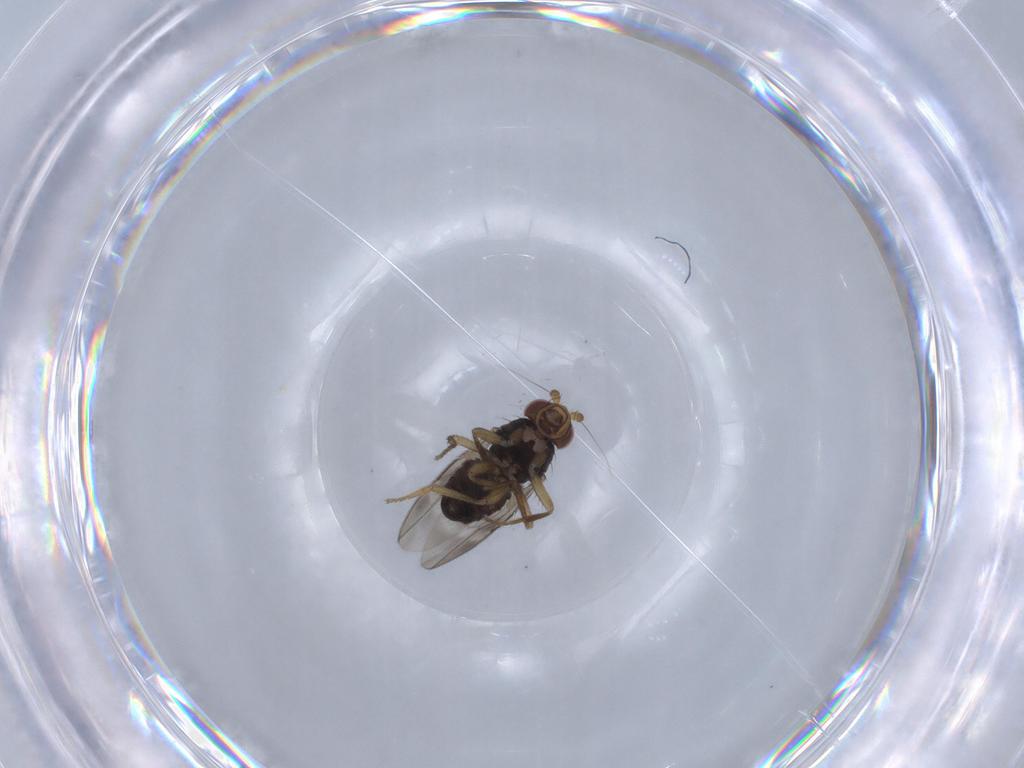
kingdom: Animalia
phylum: Arthropoda
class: Insecta
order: Diptera
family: Sphaeroceridae
